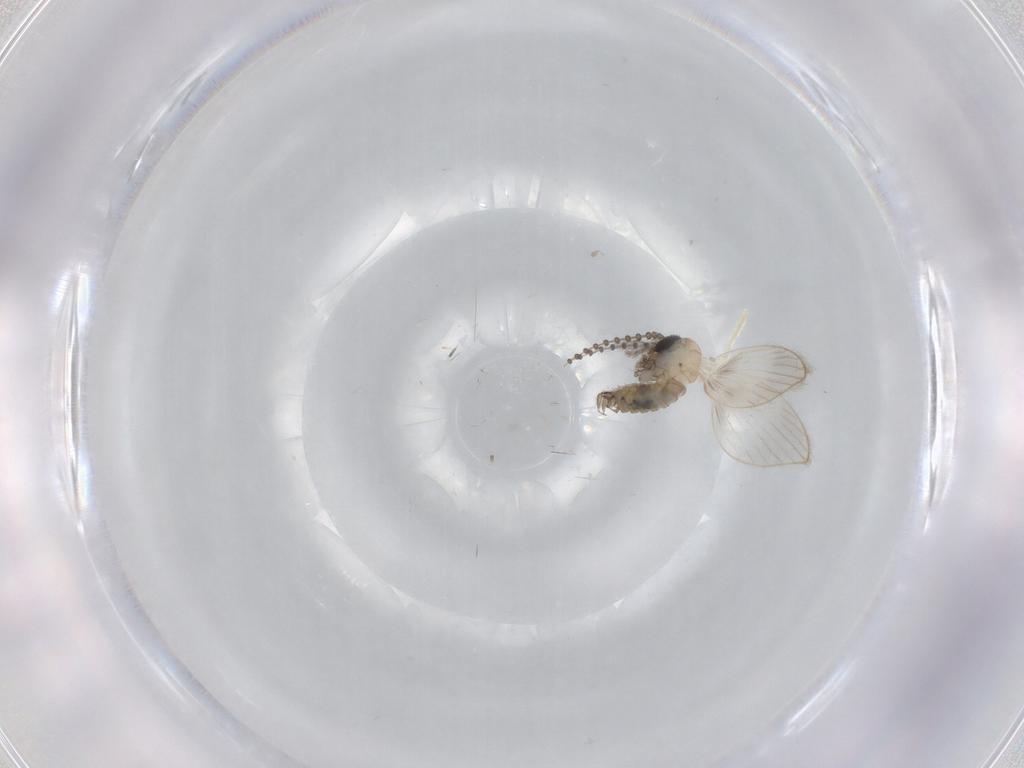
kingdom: Animalia
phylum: Arthropoda
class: Insecta
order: Diptera
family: Psychodidae
